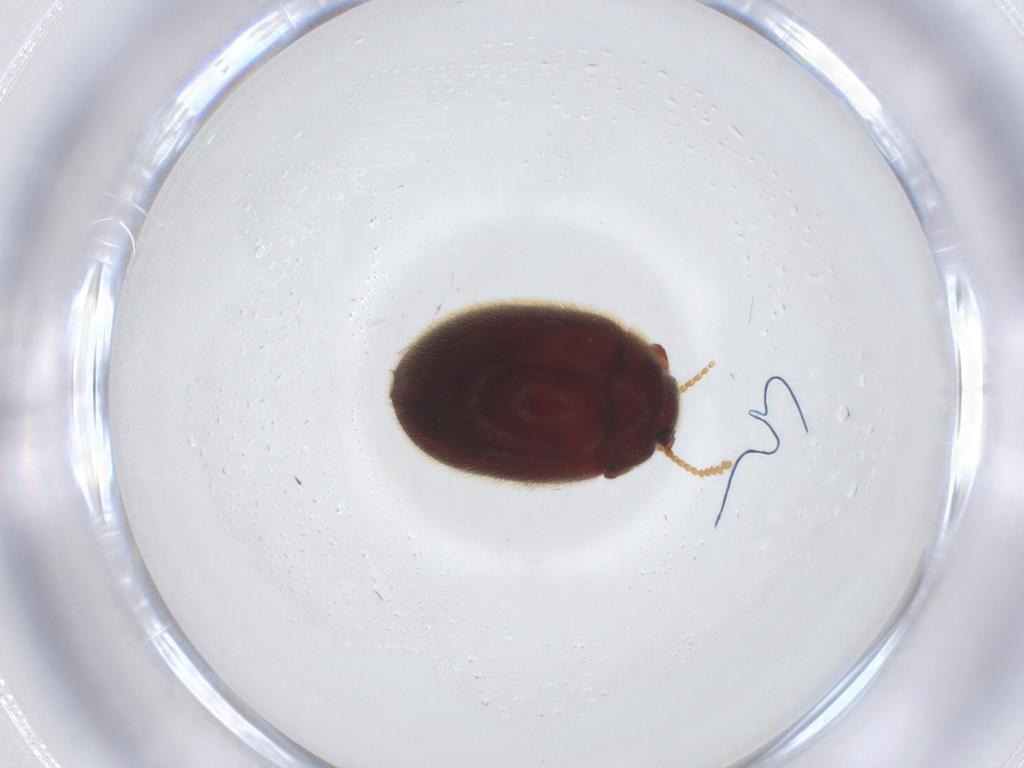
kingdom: Animalia
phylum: Arthropoda
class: Insecta
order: Coleoptera
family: Limnichidae
